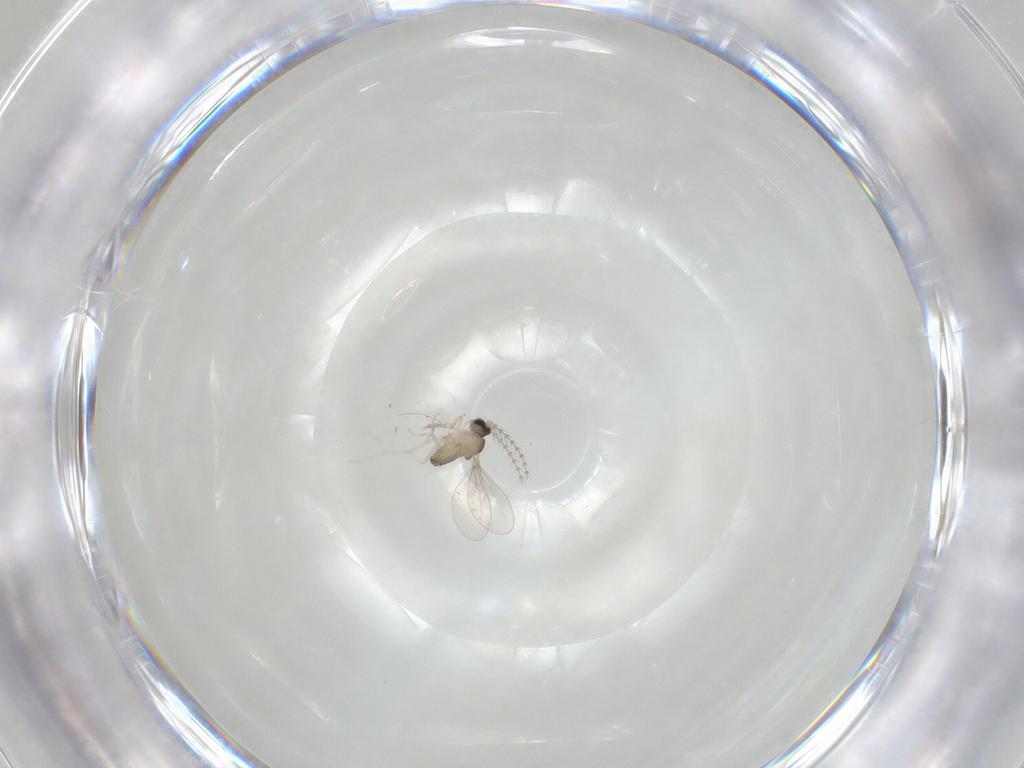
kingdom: Animalia
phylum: Arthropoda
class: Insecta
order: Diptera
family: Cecidomyiidae
